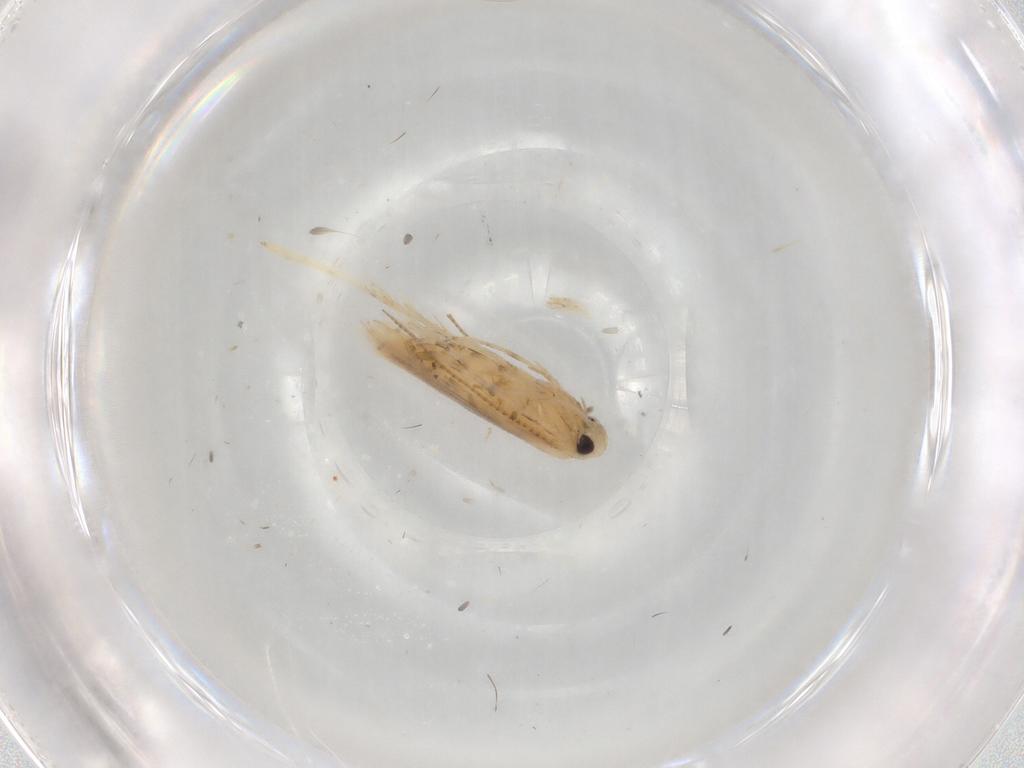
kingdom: Animalia
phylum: Arthropoda
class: Insecta
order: Lepidoptera
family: Gracillariidae
